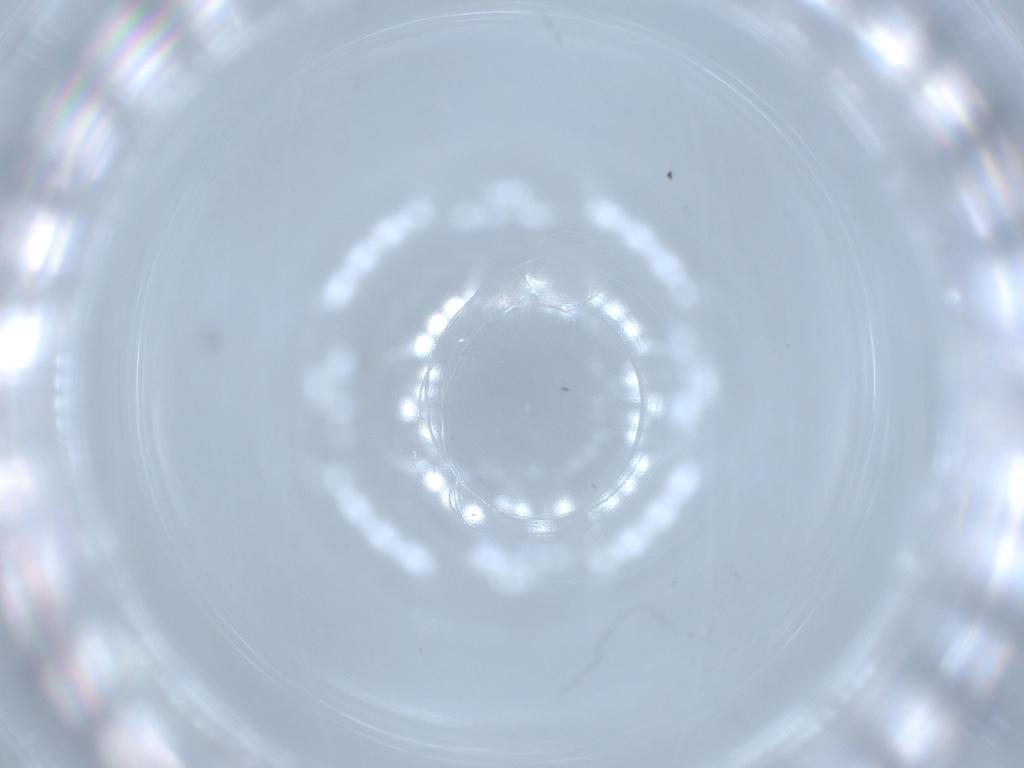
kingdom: Animalia
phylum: Arthropoda
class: Insecta
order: Diptera
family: Cecidomyiidae
